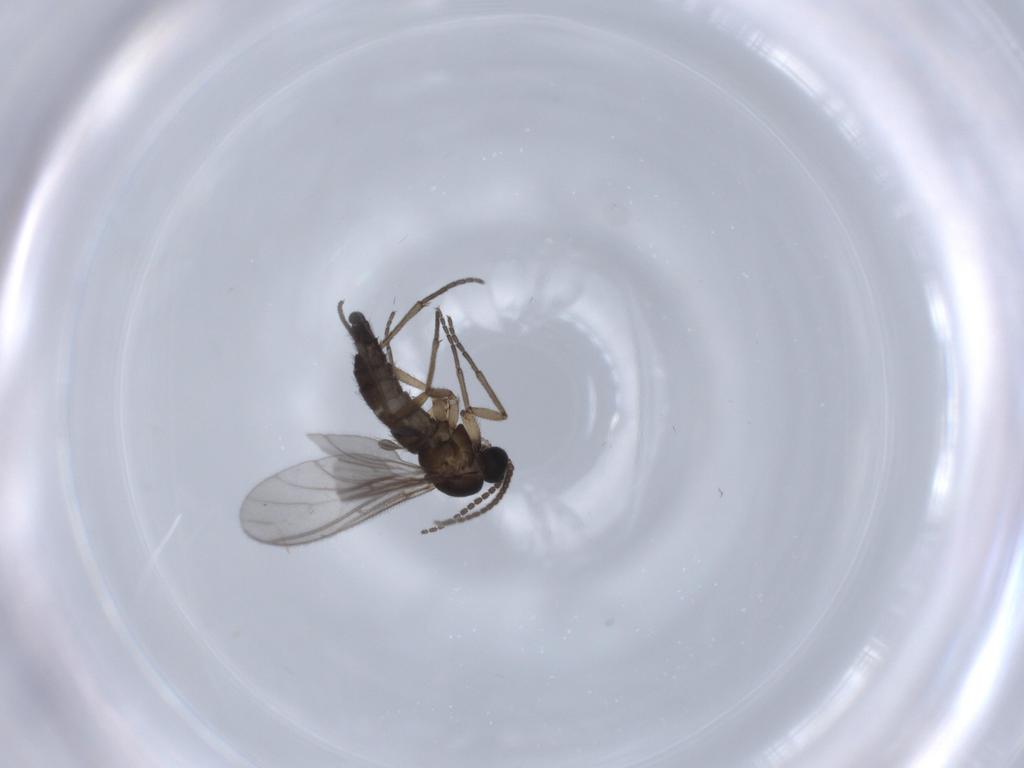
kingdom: Animalia
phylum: Arthropoda
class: Insecta
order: Diptera
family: Sciaridae
